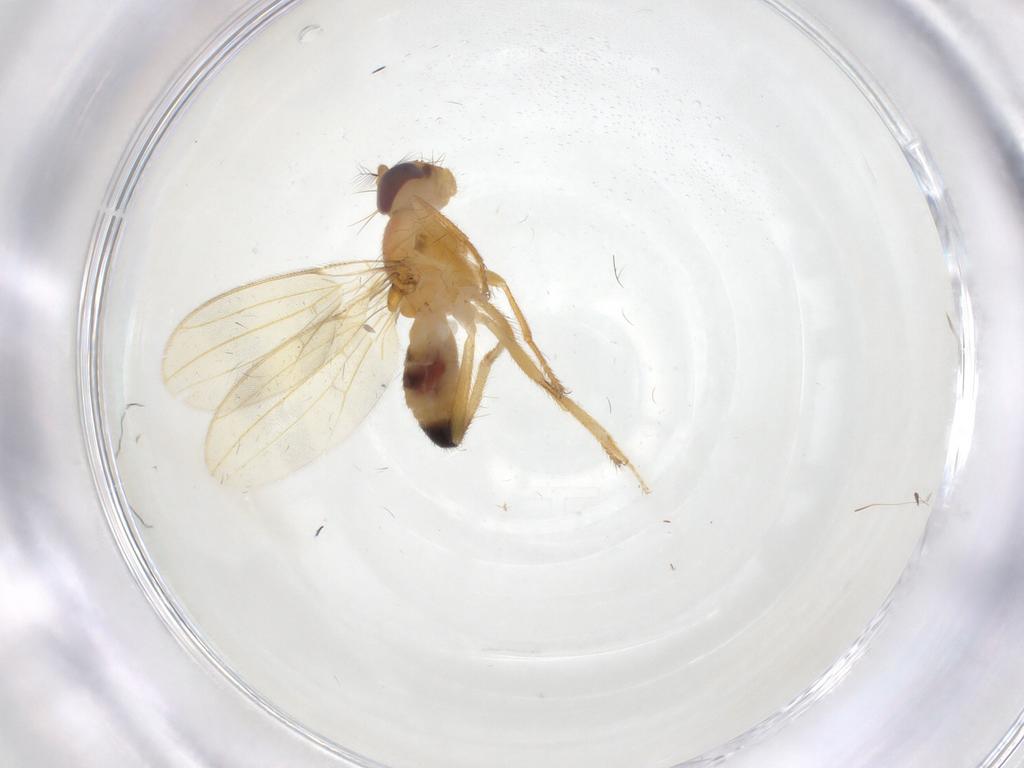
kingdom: Animalia
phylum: Arthropoda
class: Insecta
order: Diptera
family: Periscelididae
